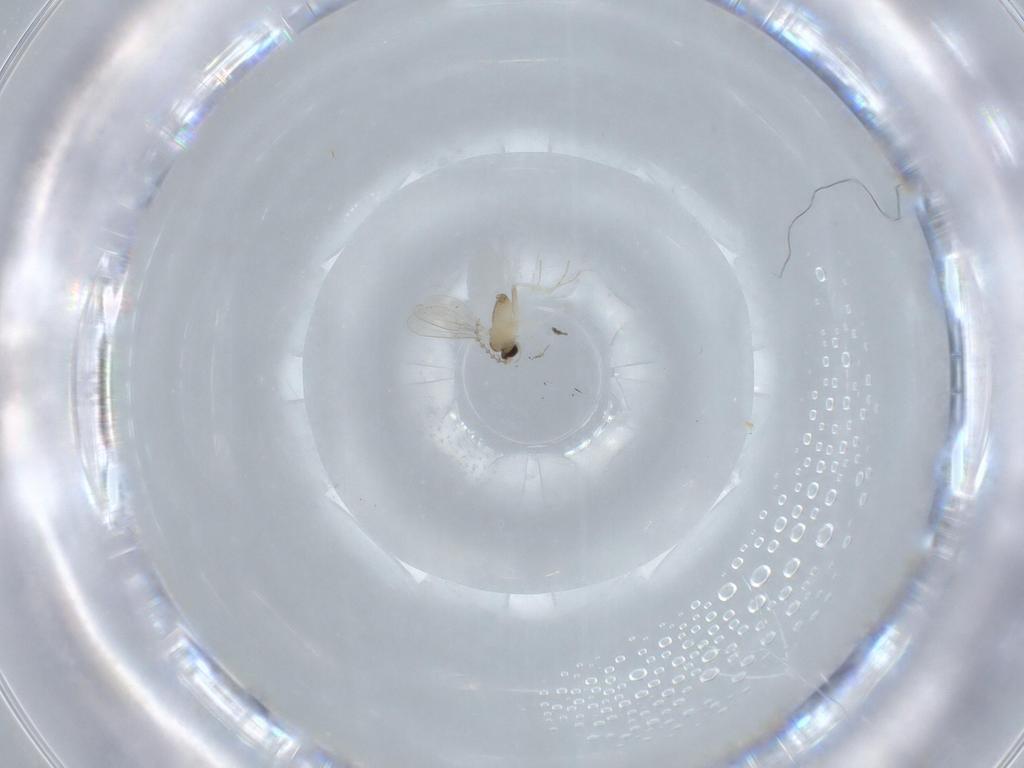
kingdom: Animalia
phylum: Arthropoda
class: Insecta
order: Diptera
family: Cecidomyiidae
